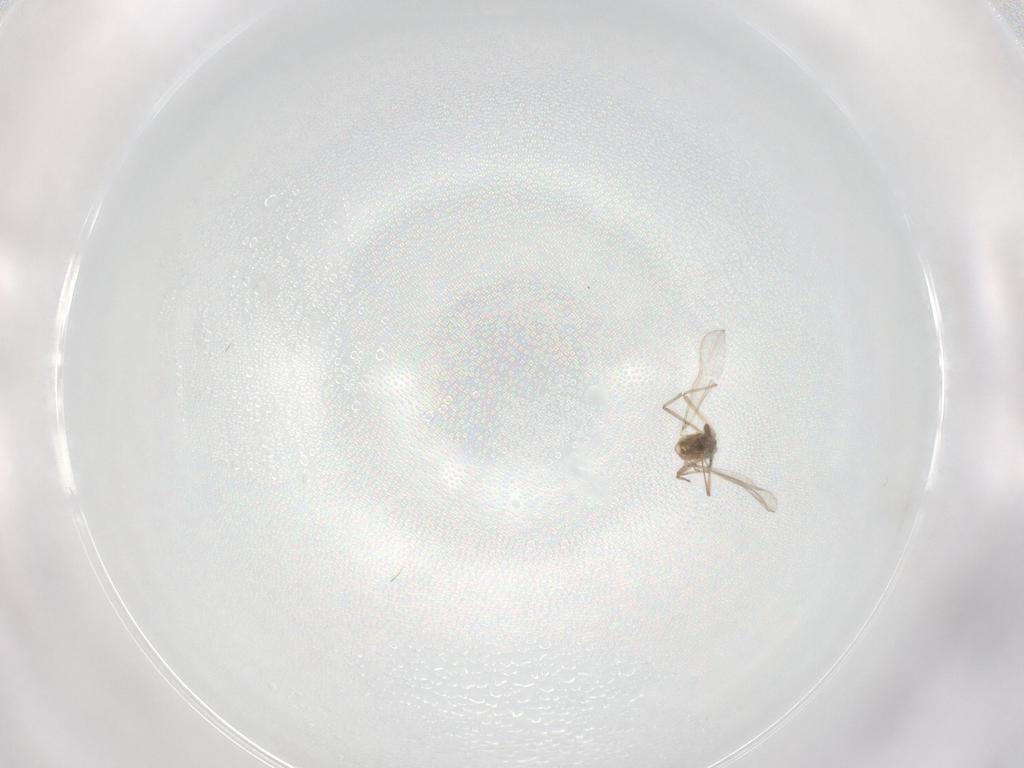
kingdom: Animalia
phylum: Arthropoda
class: Insecta
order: Diptera
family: Chironomidae
